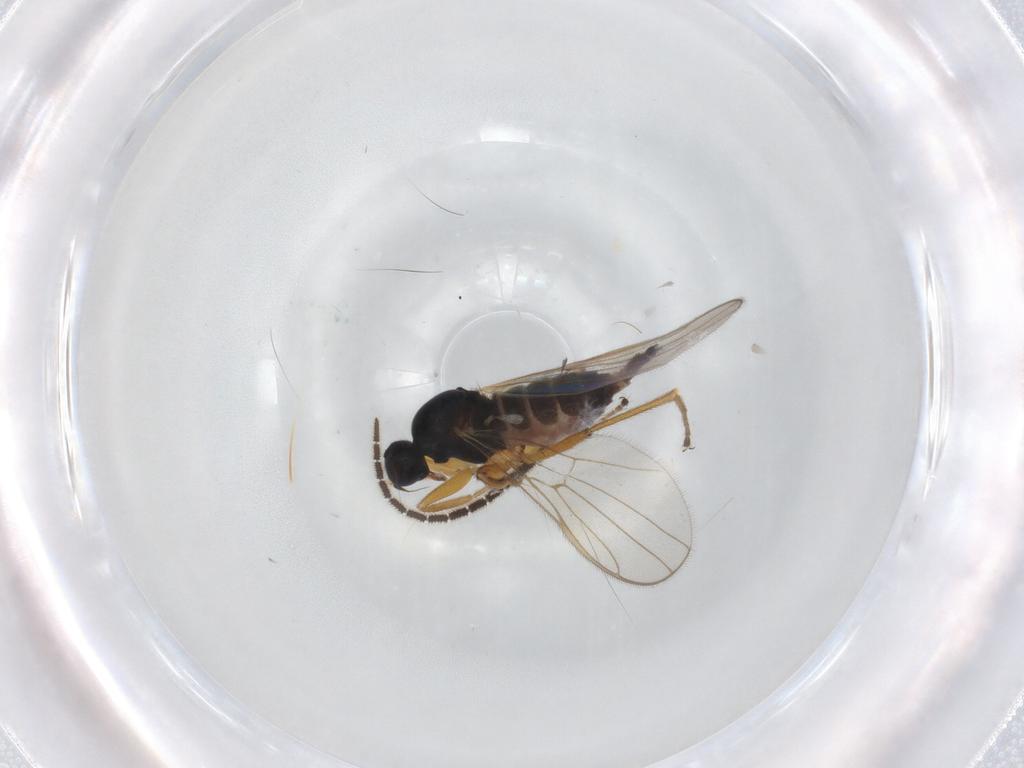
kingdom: Animalia
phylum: Arthropoda
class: Insecta
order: Diptera
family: Hybotidae
